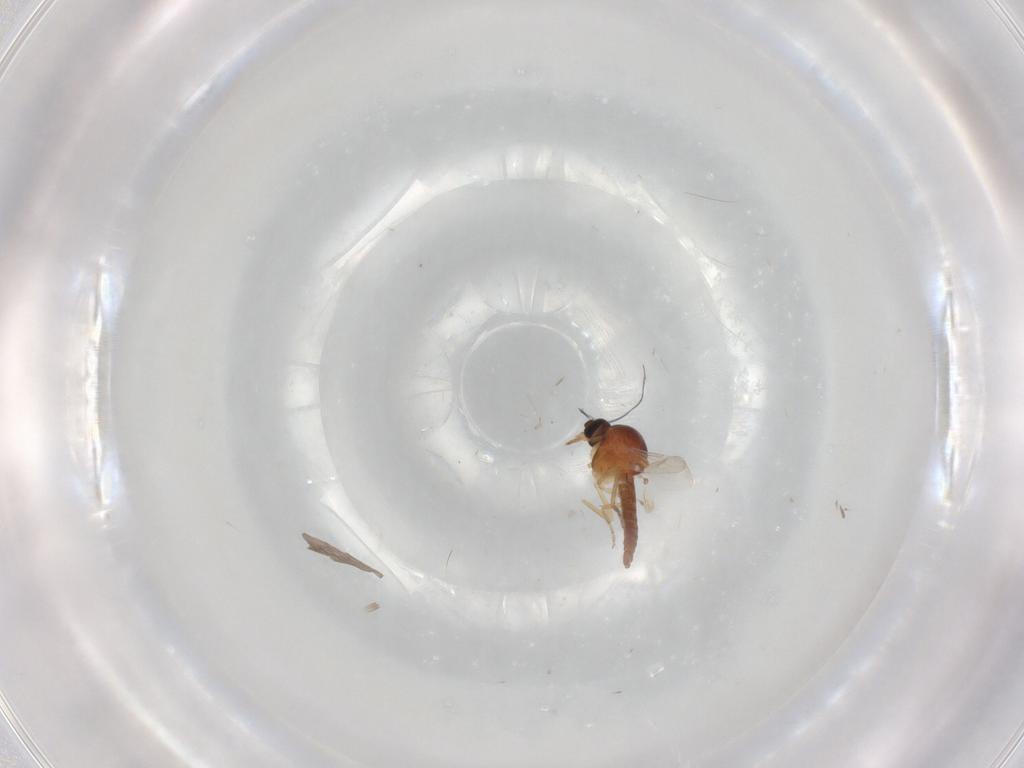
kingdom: Animalia
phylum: Arthropoda
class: Insecta
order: Diptera
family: Ceratopogonidae
